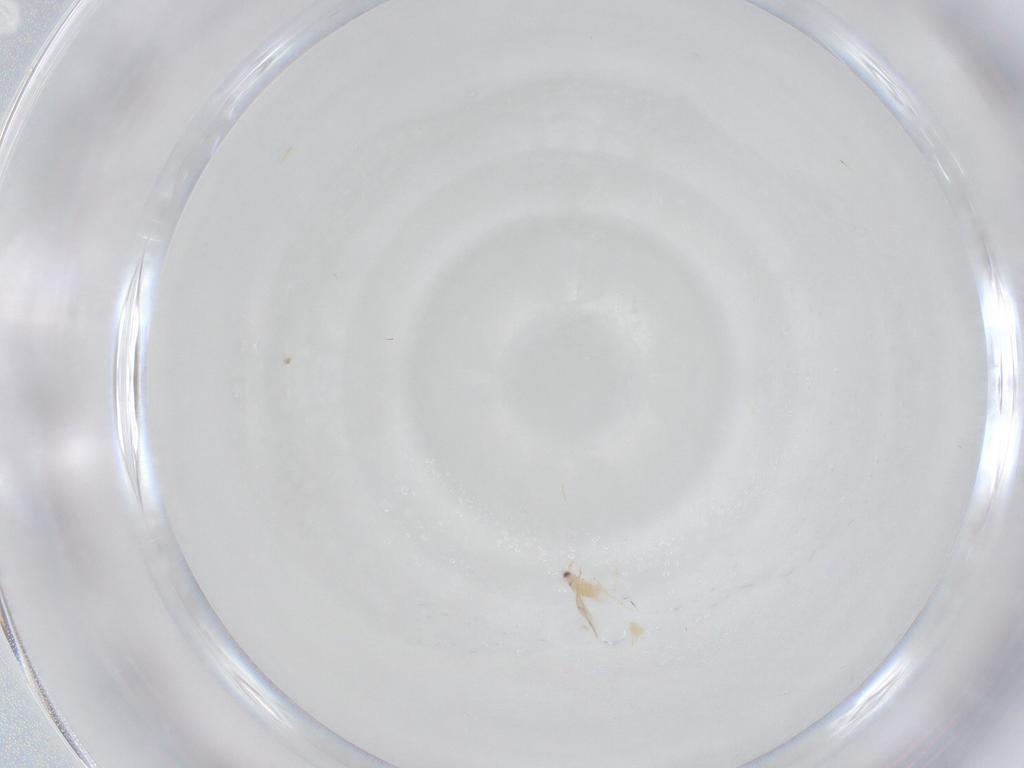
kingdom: Animalia
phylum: Arthropoda
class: Insecta
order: Hymenoptera
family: Aphelinidae
